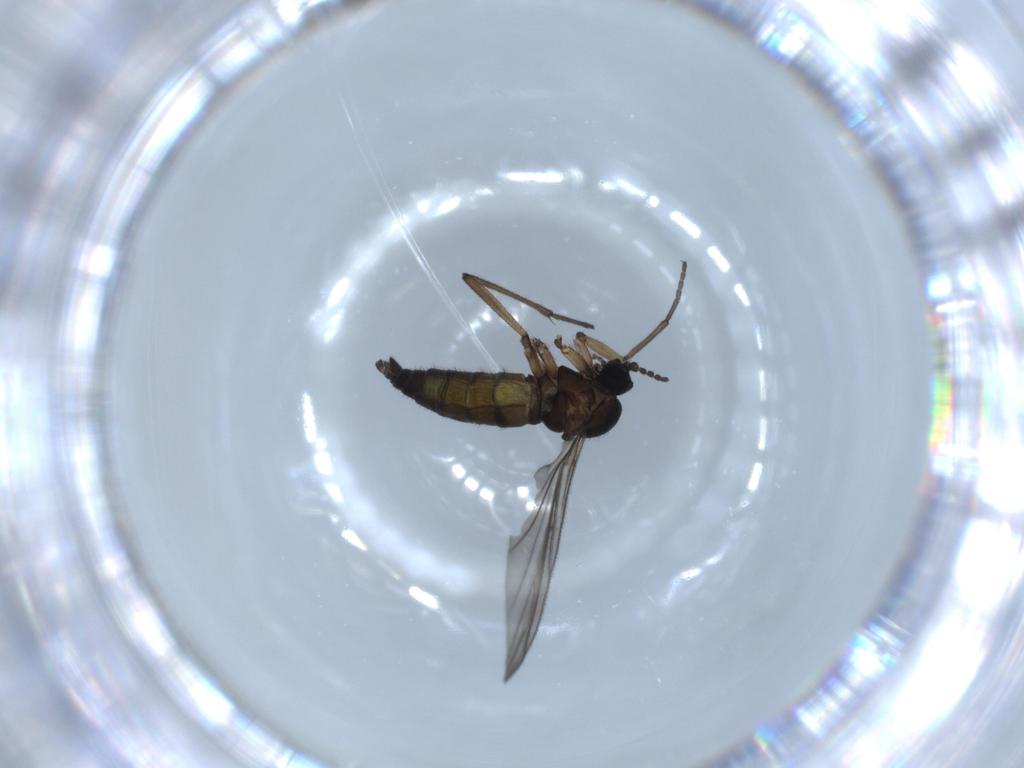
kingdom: Animalia
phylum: Arthropoda
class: Insecta
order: Diptera
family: Sciaridae
